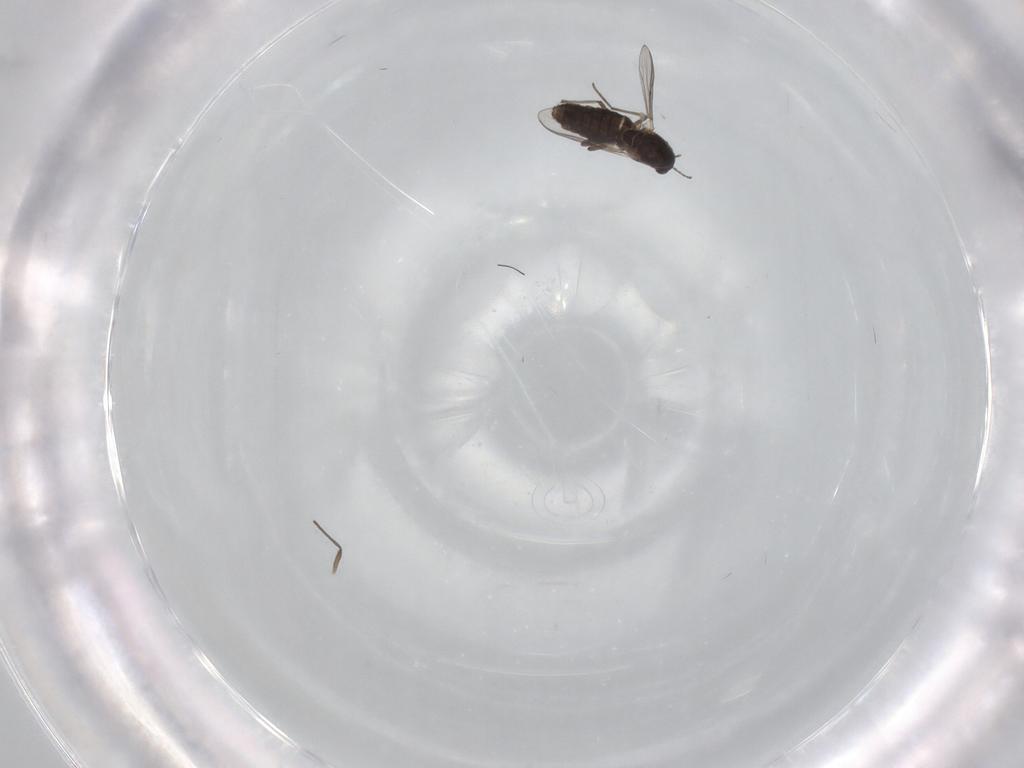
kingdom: Animalia
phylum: Arthropoda
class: Insecta
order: Diptera
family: Chironomidae
